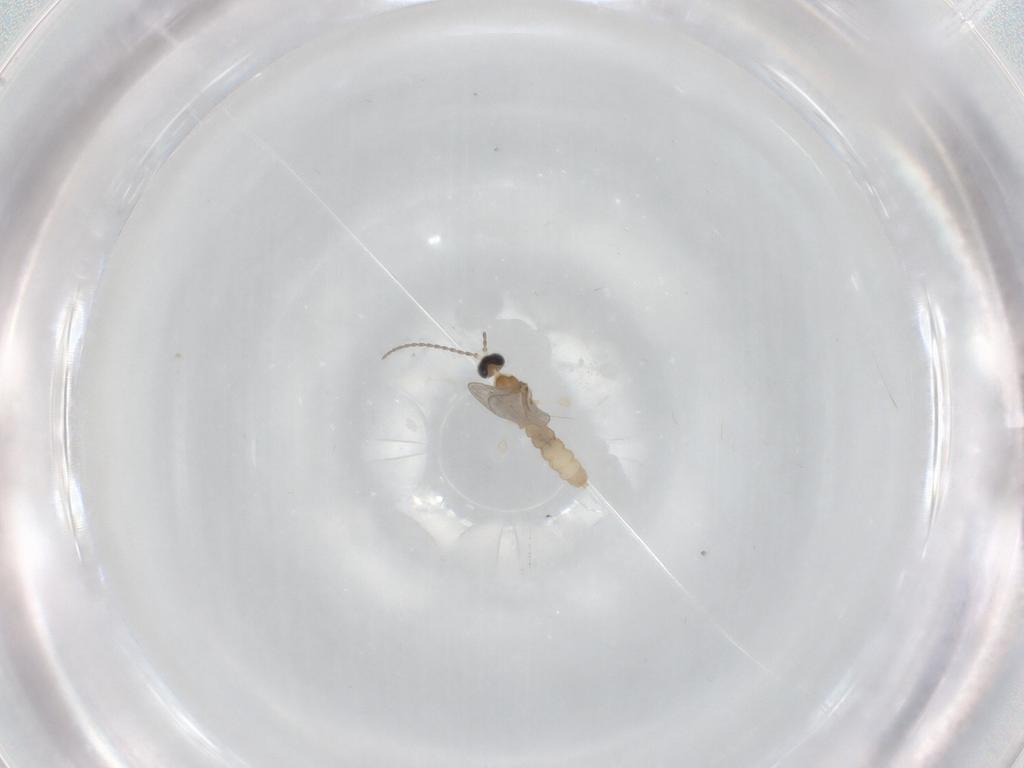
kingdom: Animalia
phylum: Arthropoda
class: Insecta
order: Diptera
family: Cecidomyiidae
